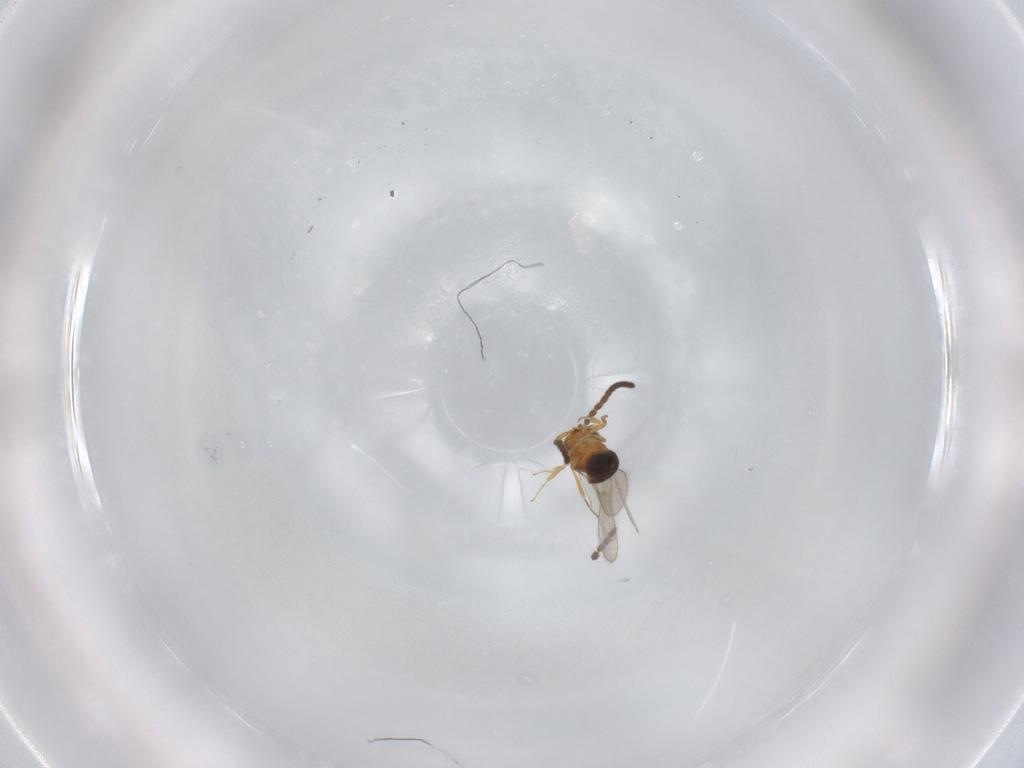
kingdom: Animalia
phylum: Arthropoda
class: Insecta
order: Hymenoptera
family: Scelionidae
